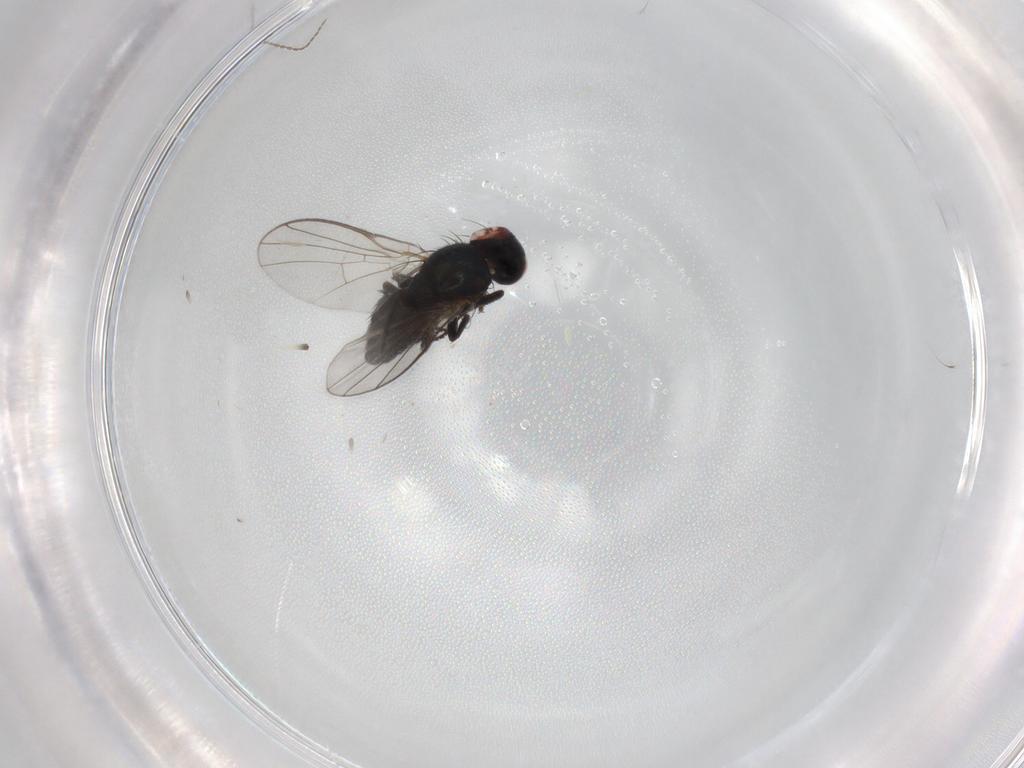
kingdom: Animalia
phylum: Arthropoda
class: Insecta
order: Diptera
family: Agromyzidae
